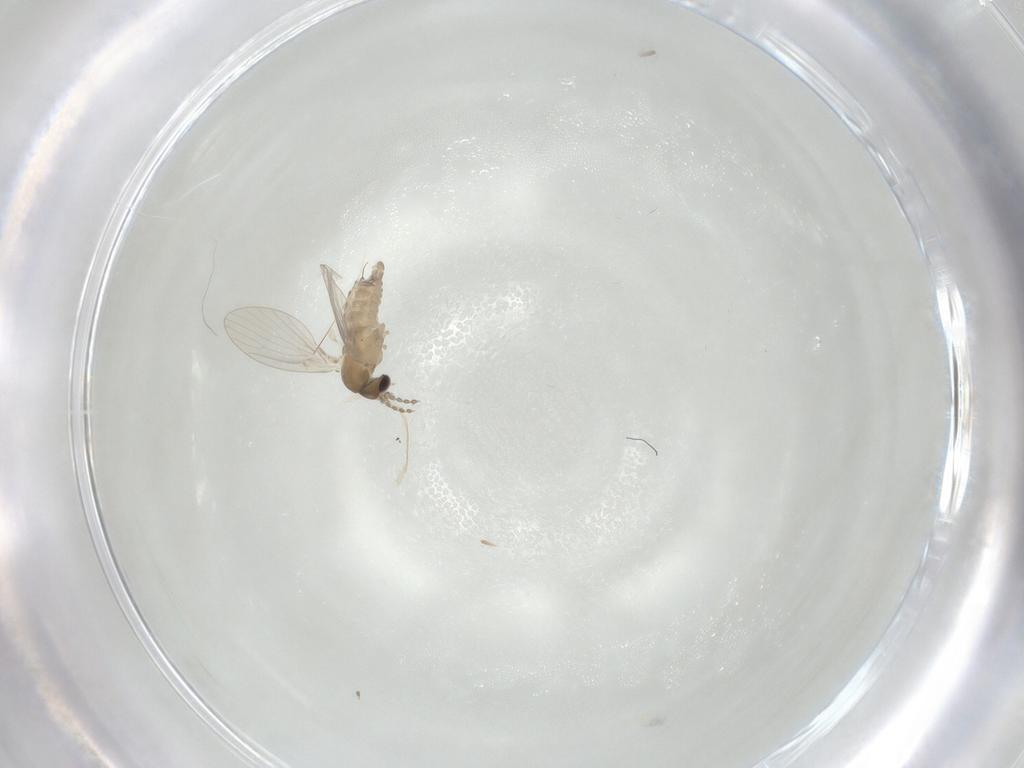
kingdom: Animalia
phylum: Arthropoda
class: Insecta
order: Diptera
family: Psychodidae
